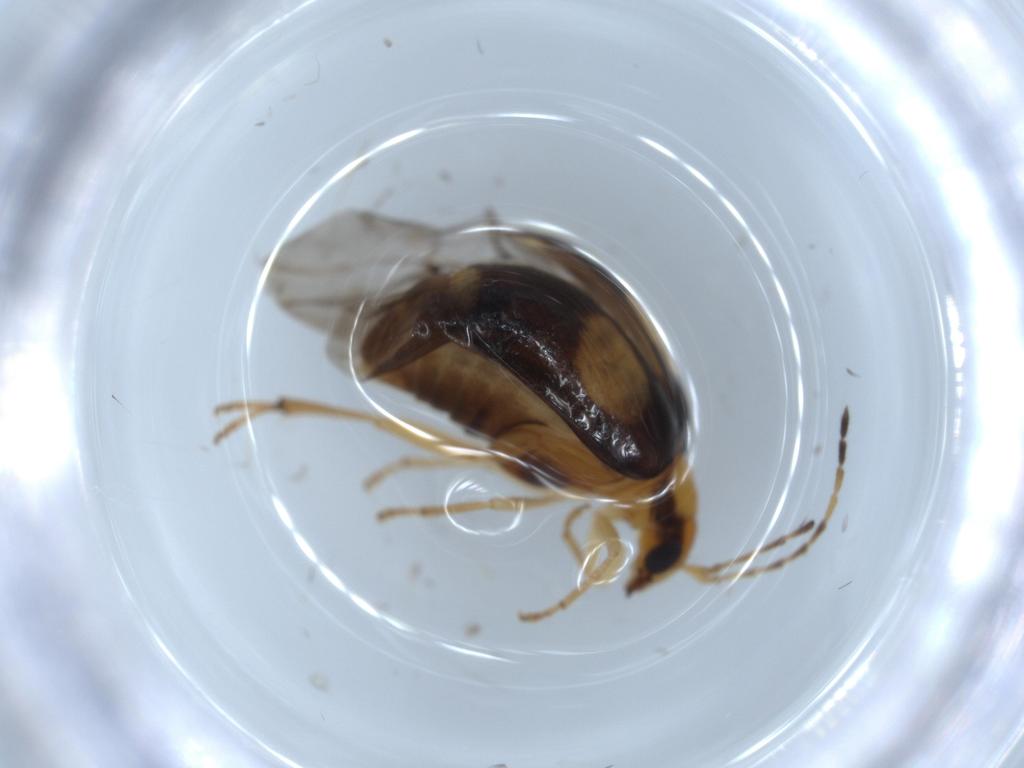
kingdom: Animalia
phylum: Arthropoda
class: Insecta
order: Coleoptera
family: Chrysomelidae
